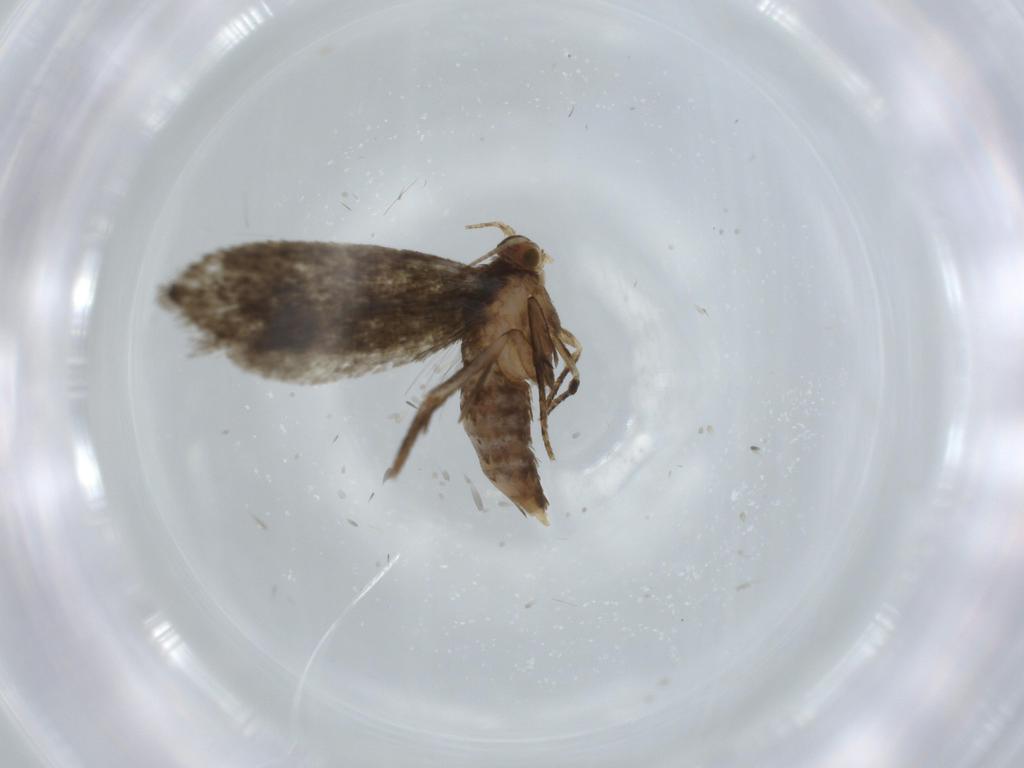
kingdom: Animalia
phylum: Arthropoda
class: Insecta
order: Lepidoptera
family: Tineidae
